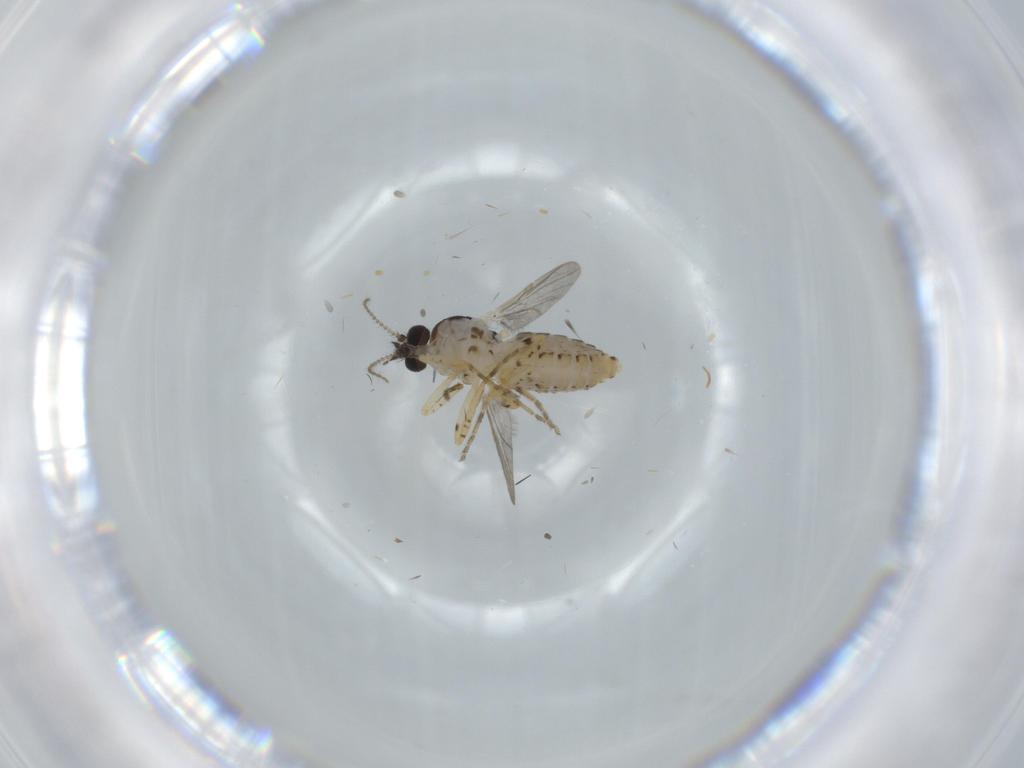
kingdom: Animalia
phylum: Arthropoda
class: Insecta
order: Diptera
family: Ceratopogonidae
